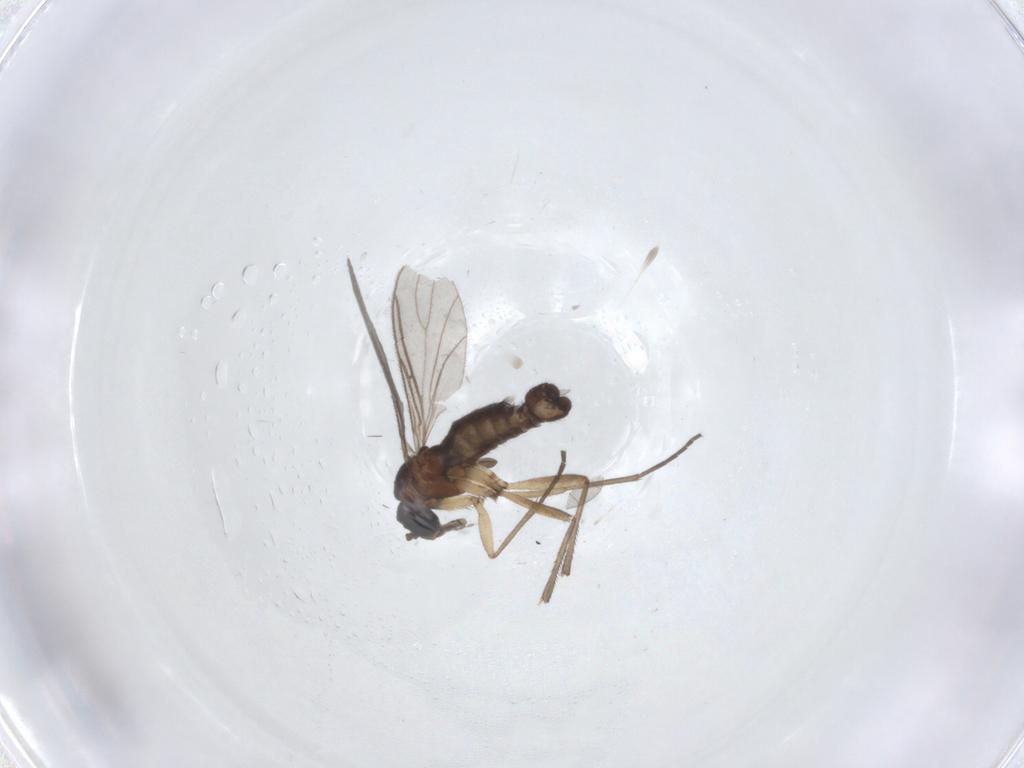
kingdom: Animalia
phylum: Arthropoda
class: Insecta
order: Diptera
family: Sciaridae
